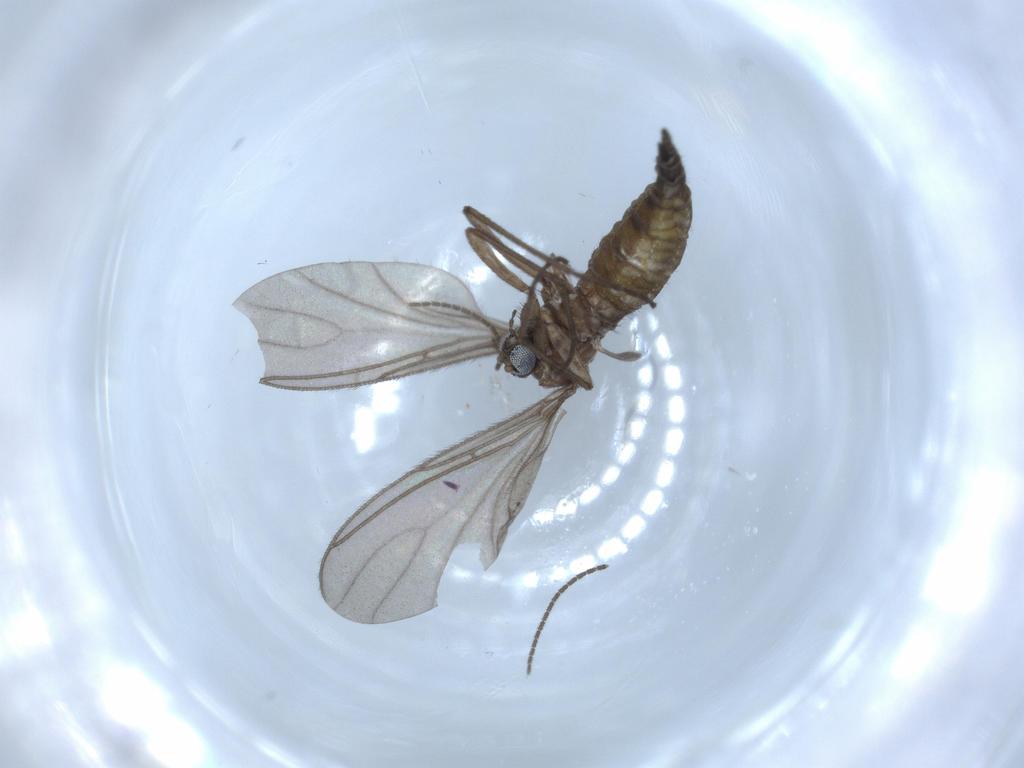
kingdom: Animalia
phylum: Arthropoda
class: Insecta
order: Diptera
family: Sciaridae
